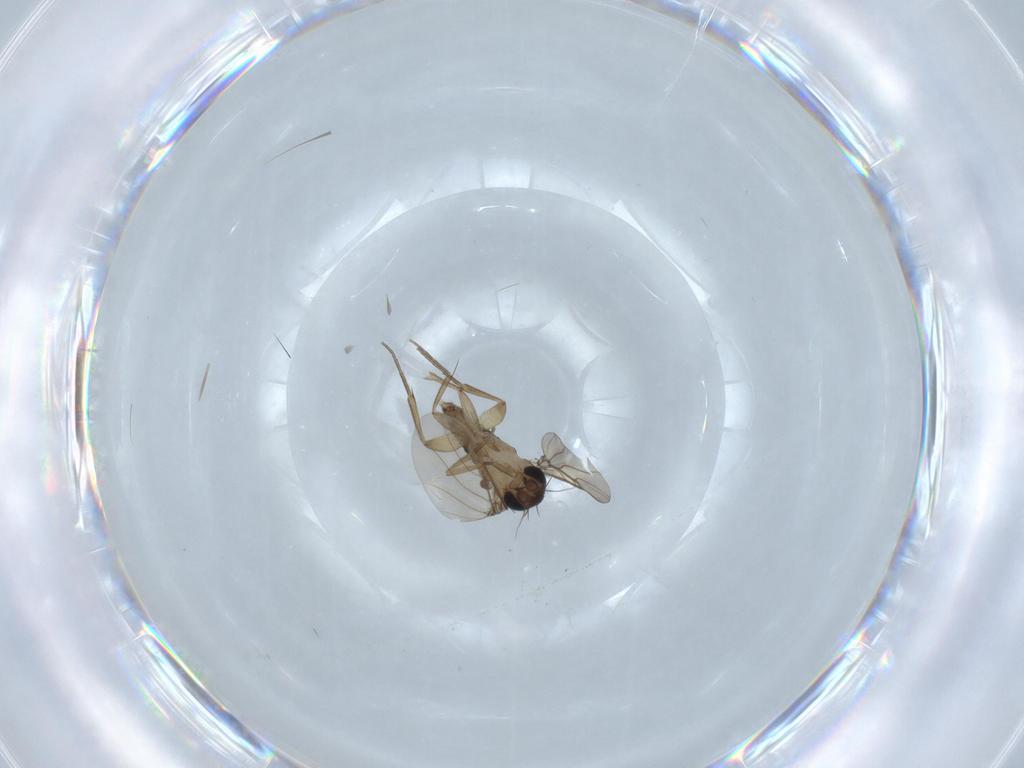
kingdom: Animalia
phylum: Arthropoda
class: Insecta
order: Diptera
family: Phoridae
